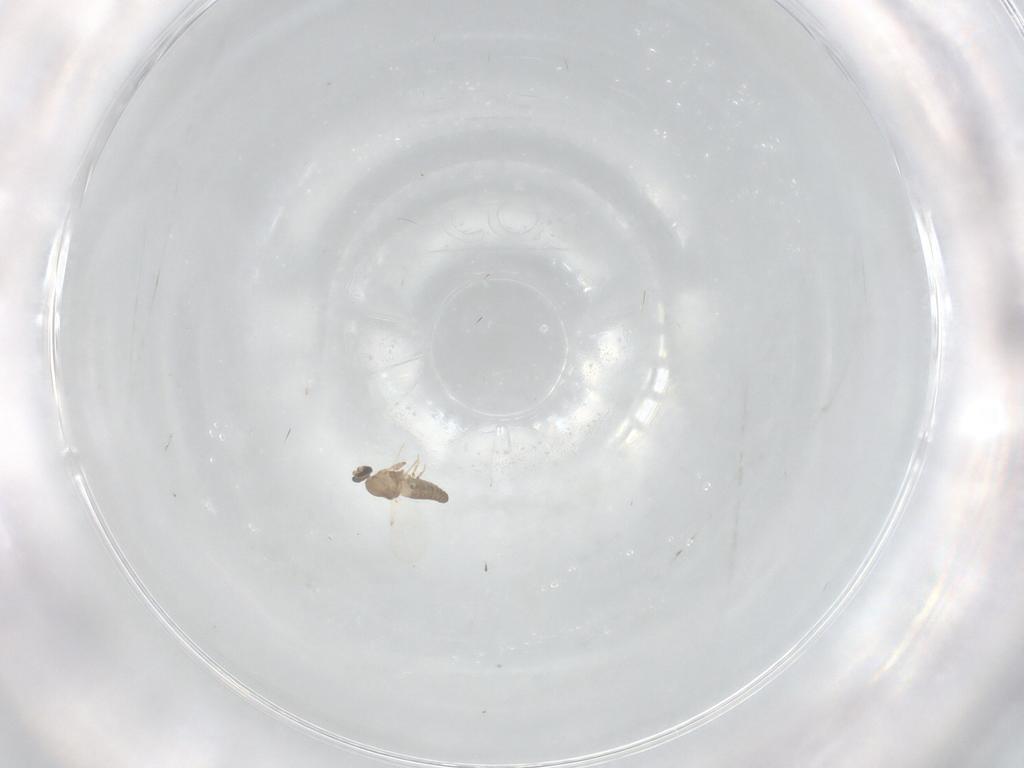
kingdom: Animalia
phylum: Arthropoda
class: Insecta
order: Diptera
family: Ceratopogonidae
